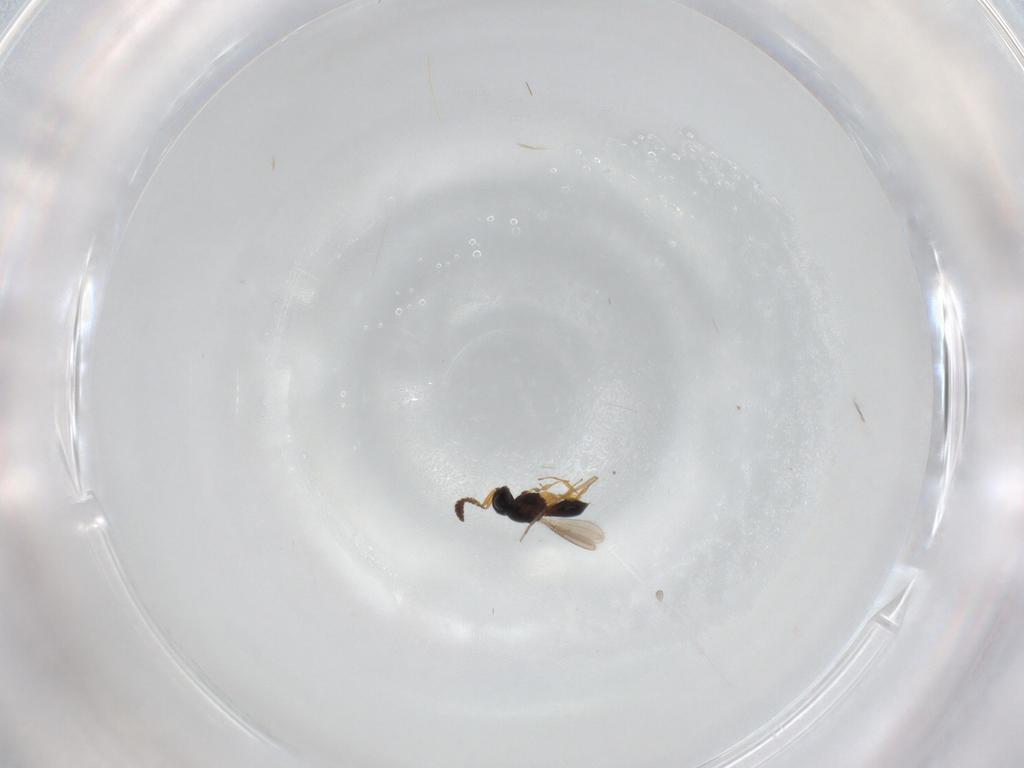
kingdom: Animalia
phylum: Arthropoda
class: Insecta
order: Hymenoptera
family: Scelionidae
